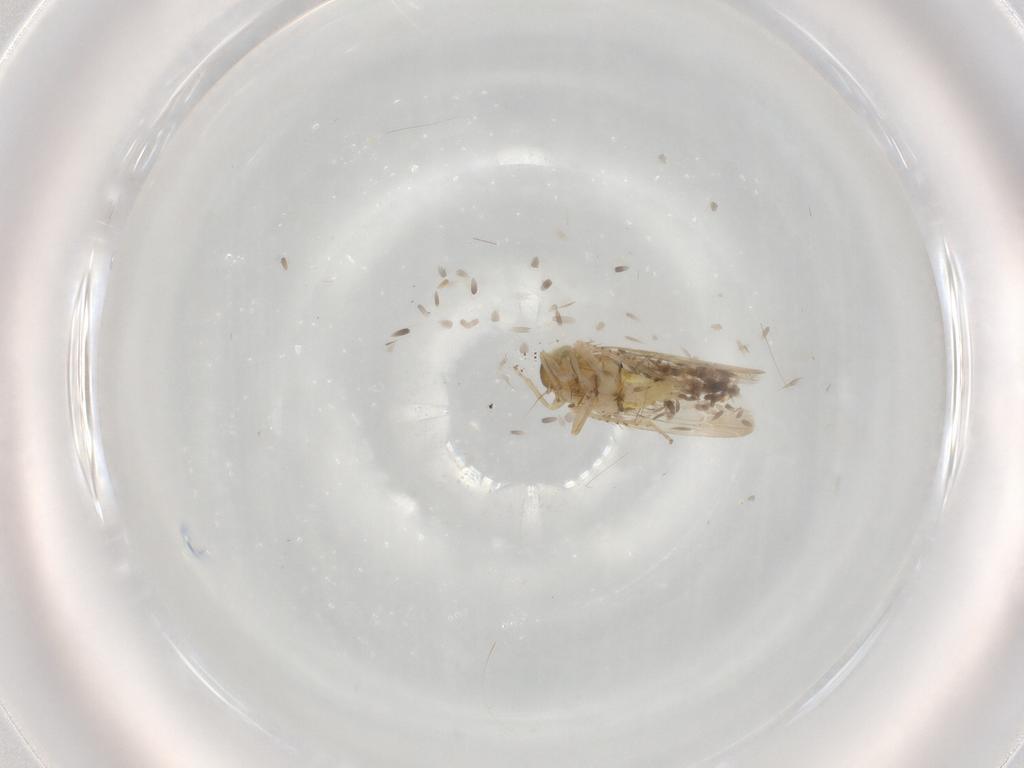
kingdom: Animalia
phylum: Arthropoda
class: Insecta
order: Hemiptera
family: Cicadellidae
